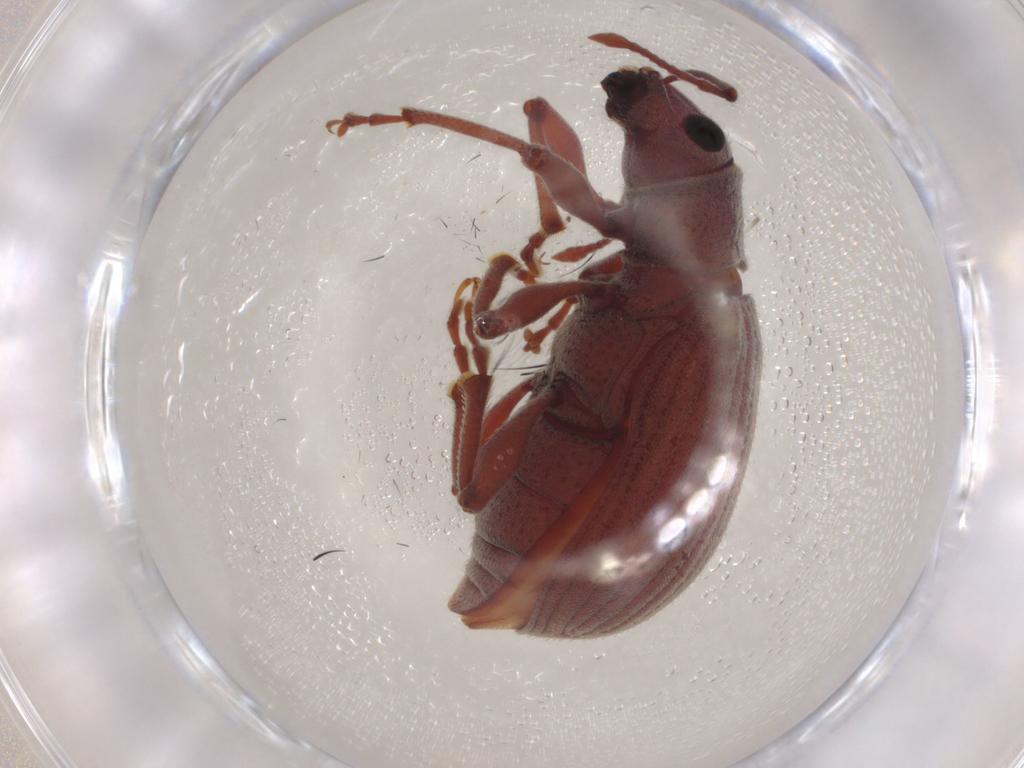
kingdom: Animalia
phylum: Arthropoda
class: Insecta
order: Coleoptera
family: Curculionidae
